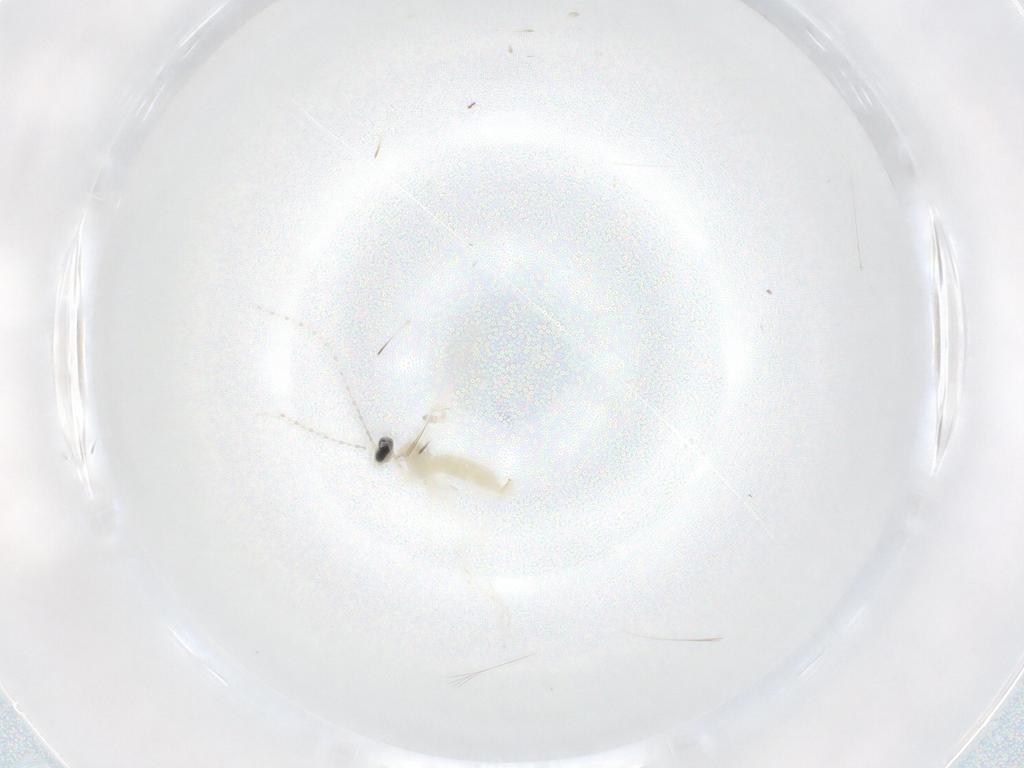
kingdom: Animalia
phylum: Arthropoda
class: Insecta
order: Diptera
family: Cecidomyiidae
